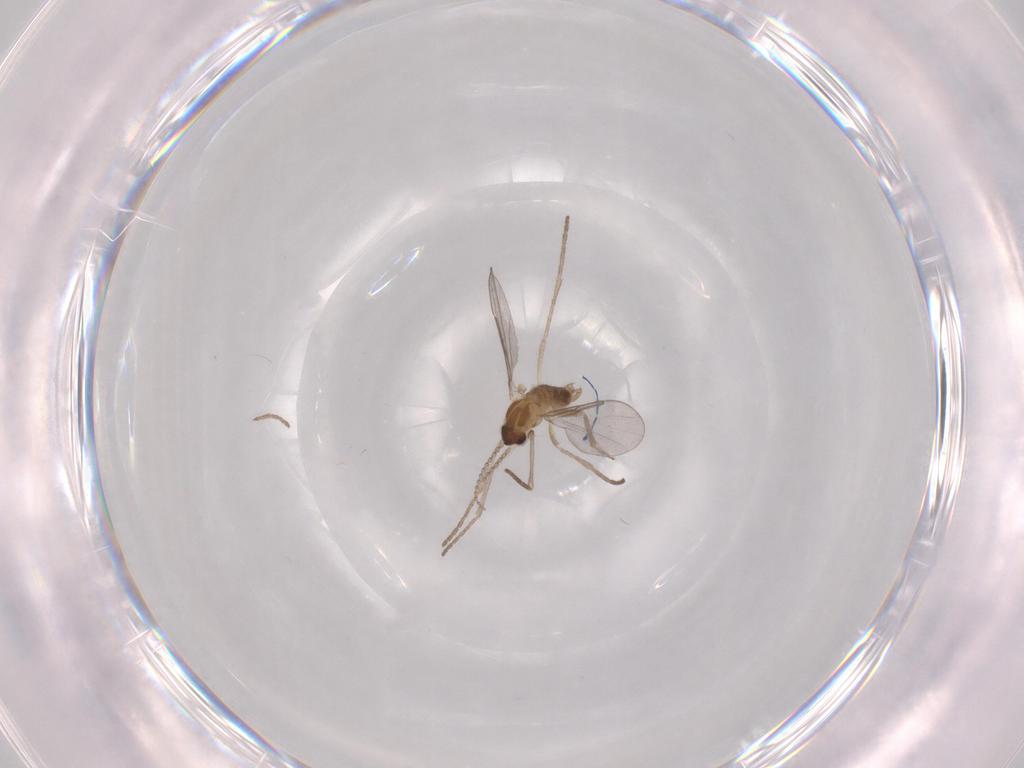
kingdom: Animalia
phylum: Arthropoda
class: Insecta
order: Diptera
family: Cecidomyiidae
